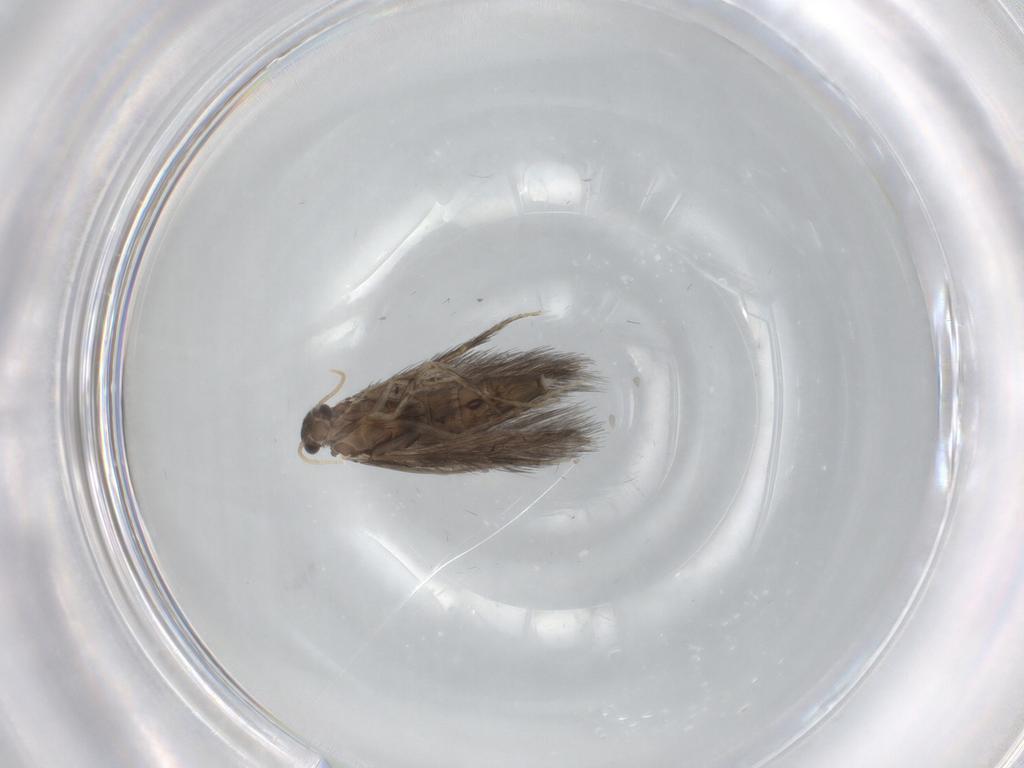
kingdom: Animalia
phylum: Arthropoda
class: Insecta
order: Trichoptera
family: Hydroptilidae
